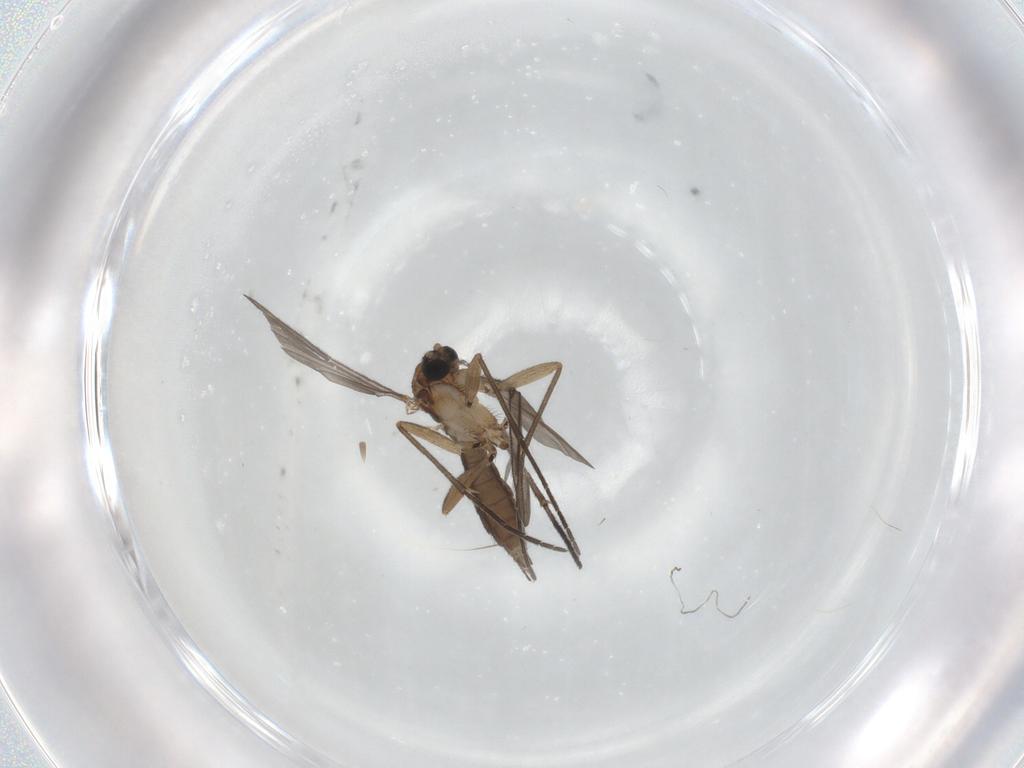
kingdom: Animalia
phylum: Arthropoda
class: Insecta
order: Diptera
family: Sciaridae
